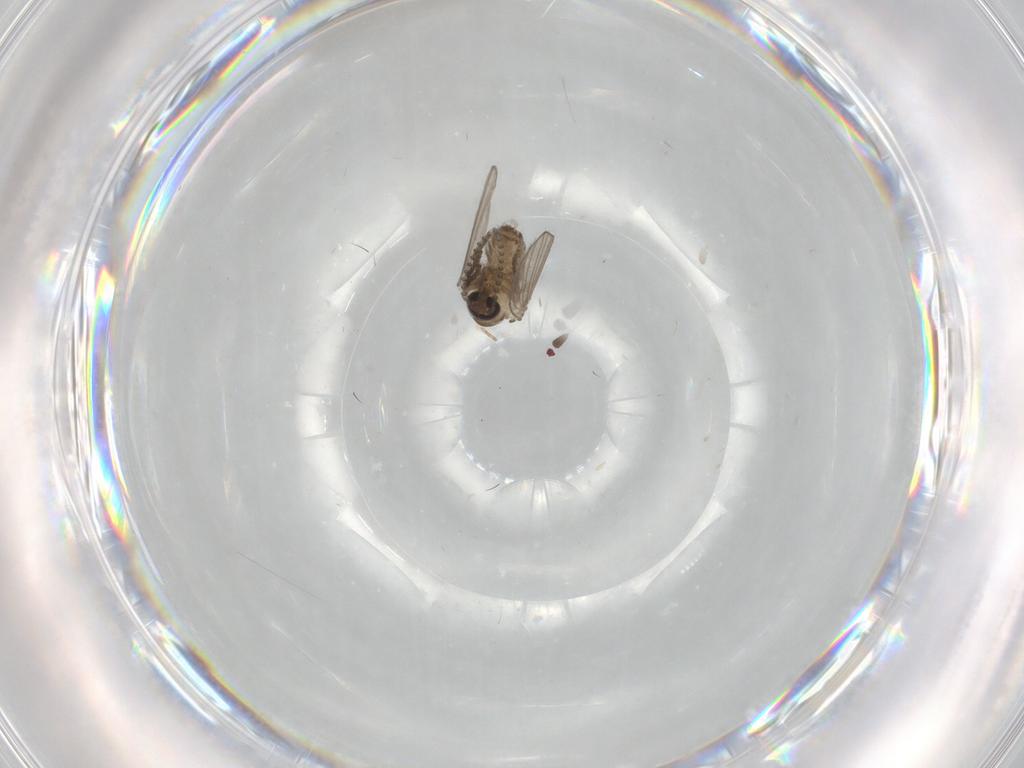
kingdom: Animalia
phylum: Arthropoda
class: Insecta
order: Diptera
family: Psychodidae
